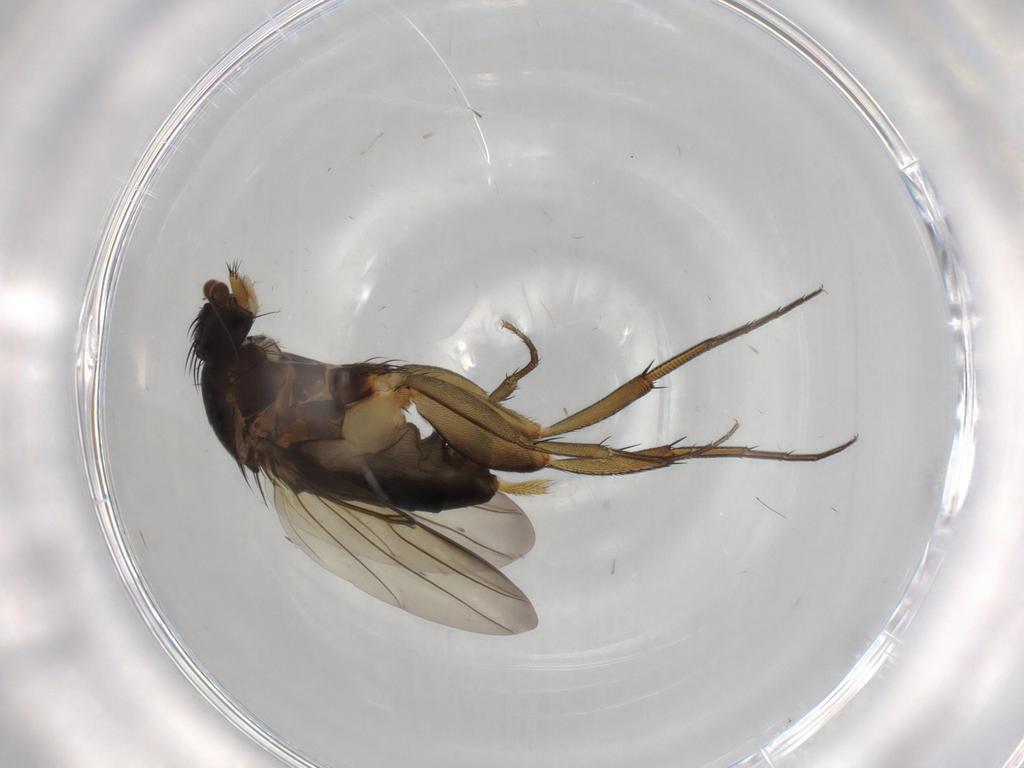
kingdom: Animalia
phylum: Arthropoda
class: Insecta
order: Diptera
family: Phoridae
